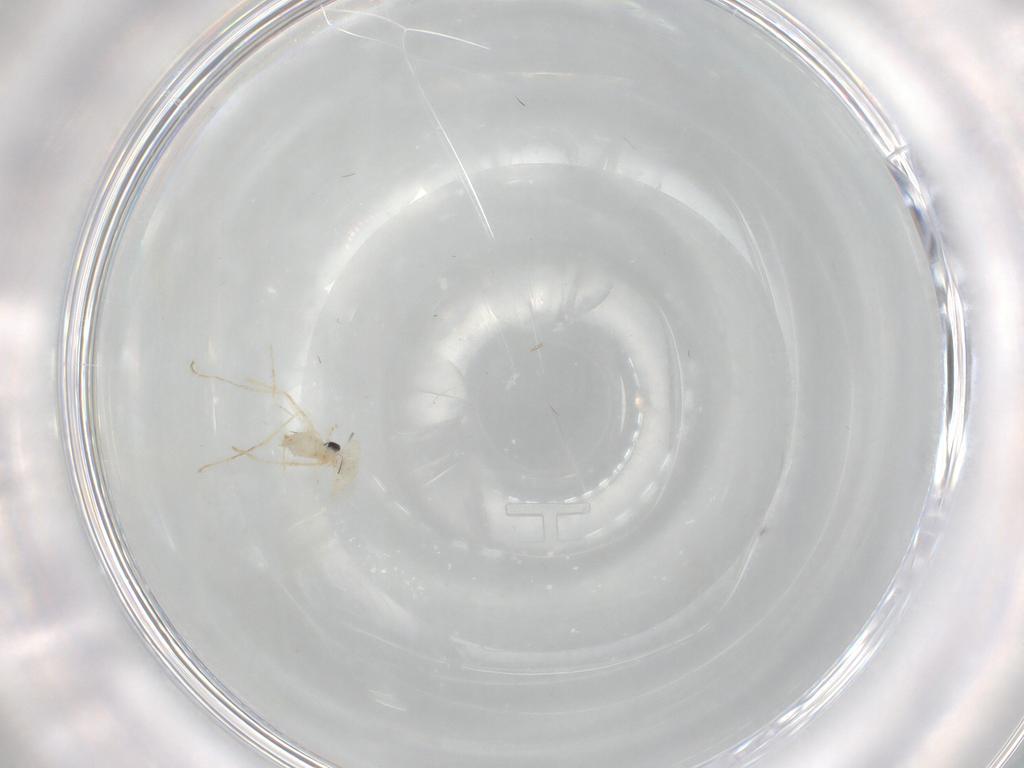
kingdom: Animalia
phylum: Arthropoda
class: Insecta
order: Diptera
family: Cecidomyiidae
